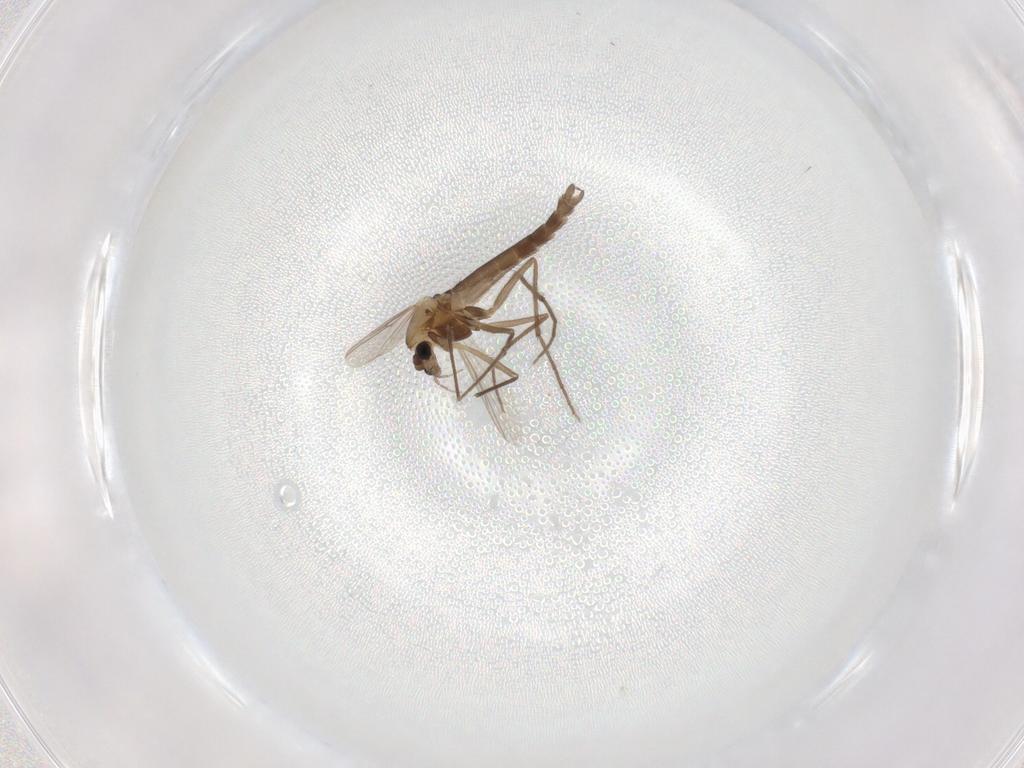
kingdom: Animalia
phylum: Arthropoda
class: Insecta
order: Diptera
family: Chironomidae
